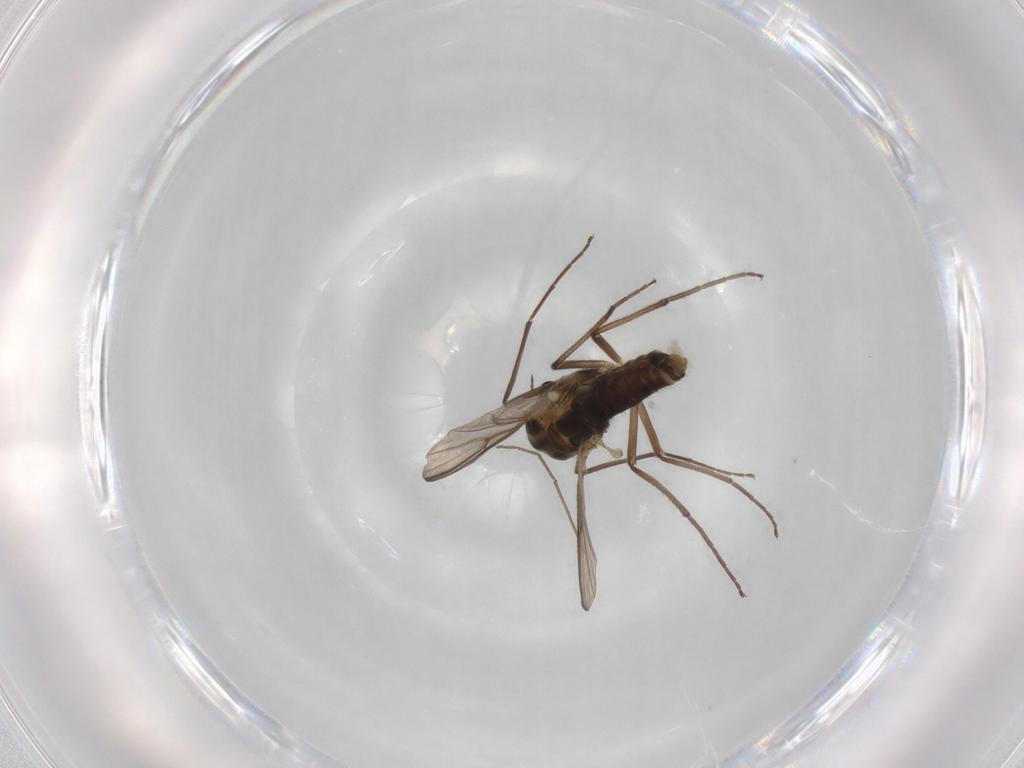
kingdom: Animalia
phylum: Arthropoda
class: Insecta
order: Diptera
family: Chironomidae
